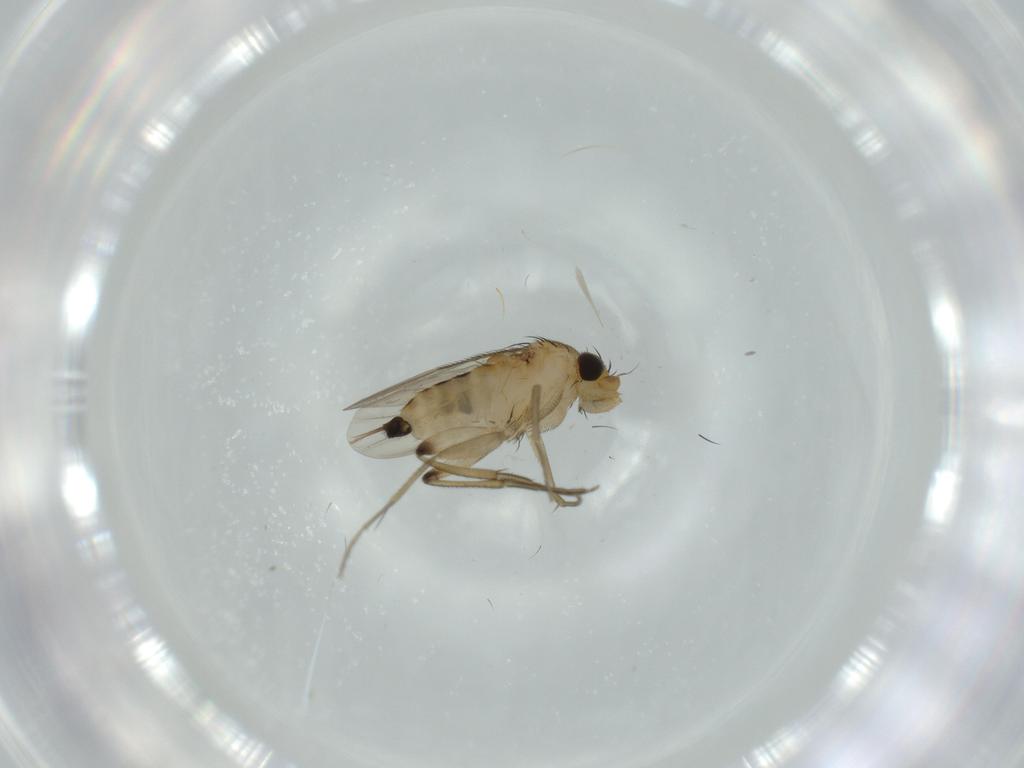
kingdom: Animalia
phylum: Arthropoda
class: Insecta
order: Diptera
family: Phoridae
